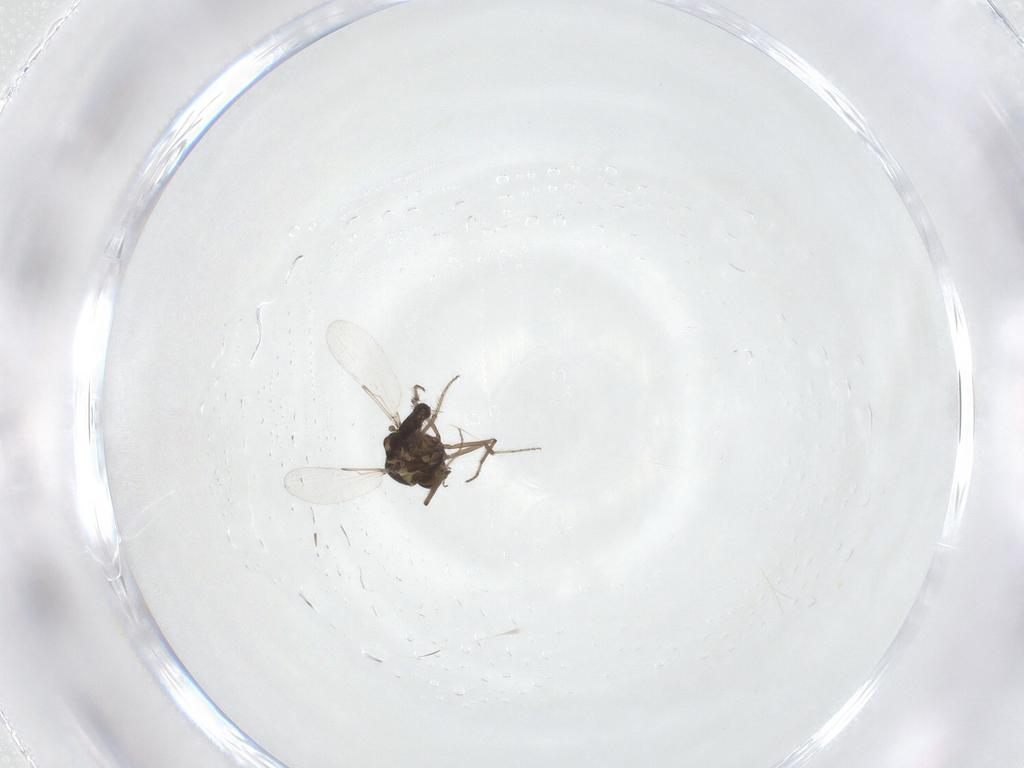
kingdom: Animalia
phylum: Arthropoda
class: Insecta
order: Diptera
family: Ceratopogonidae
